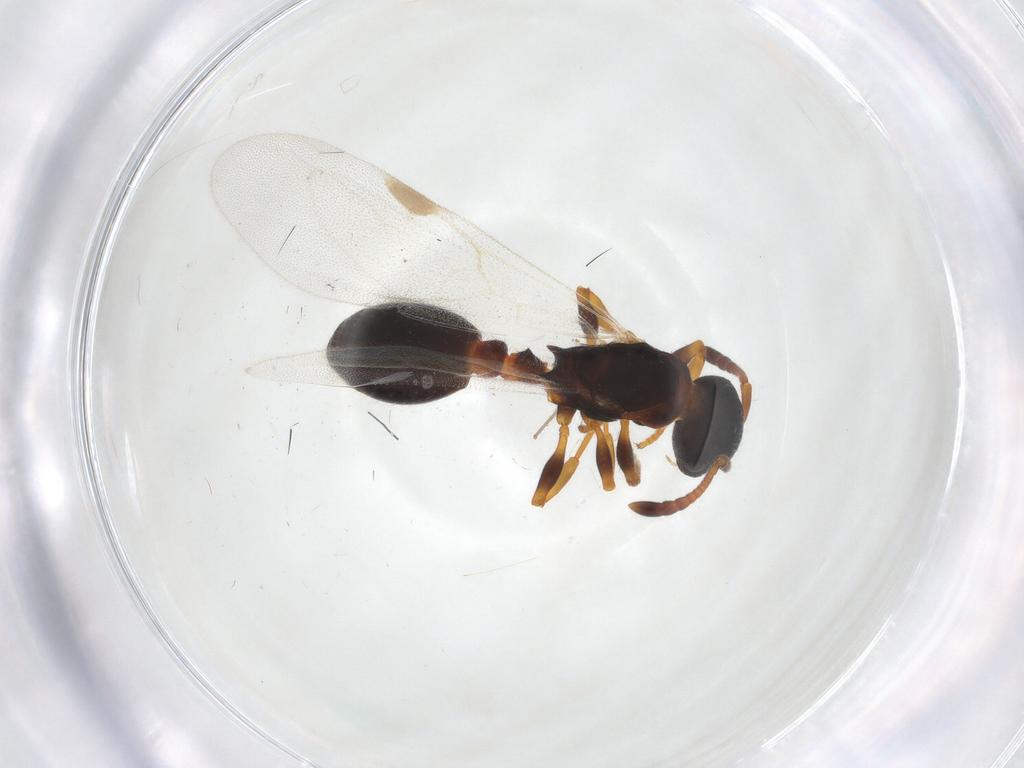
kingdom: Animalia
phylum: Arthropoda
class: Insecta
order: Hymenoptera
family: Formicidae
